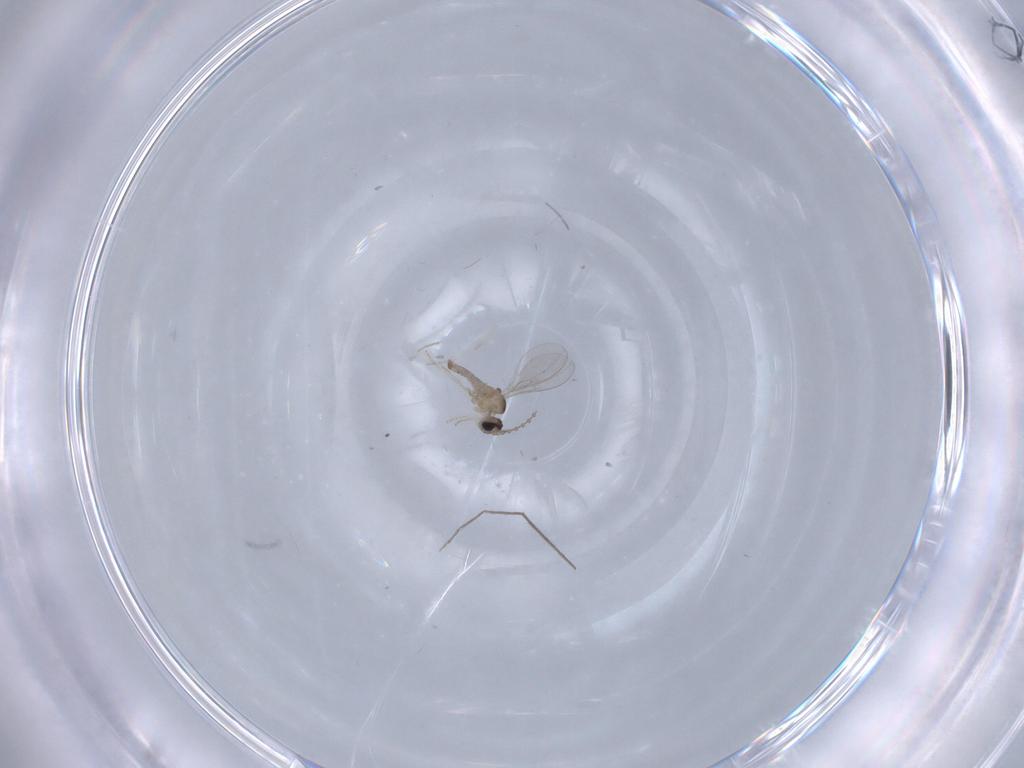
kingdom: Animalia
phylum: Arthropoda
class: Insecta
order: Diptera
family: Cecidomyiidae
